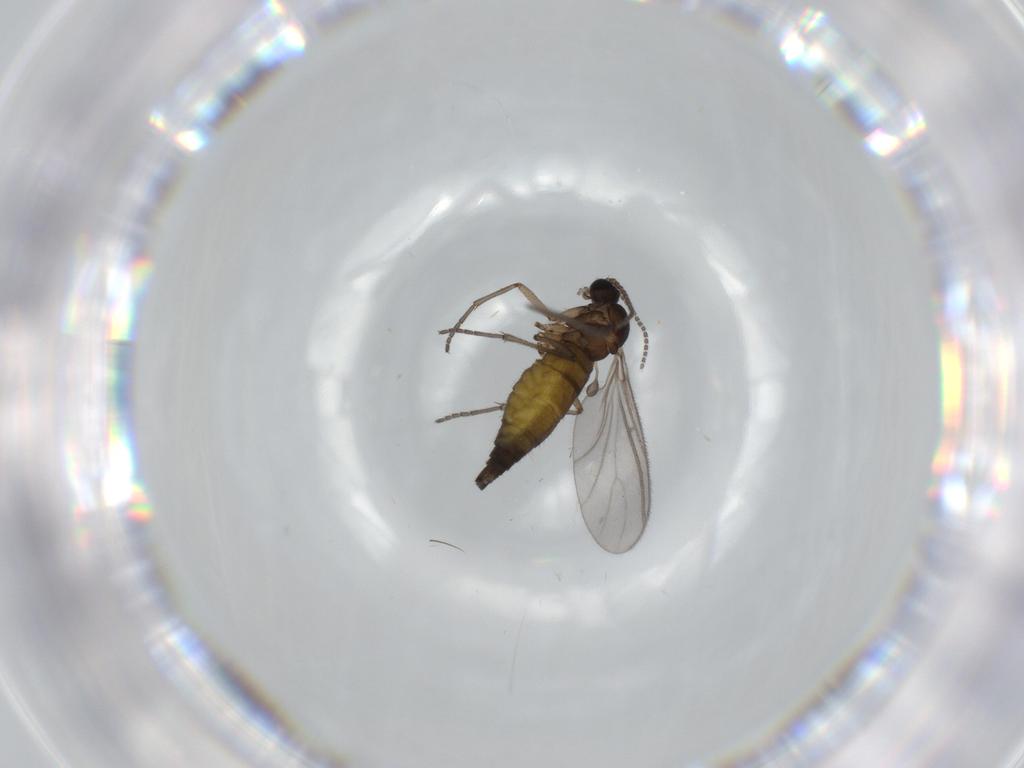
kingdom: Animalia
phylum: Arthropoda
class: Insecta
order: Diptera
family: Sciaridae
